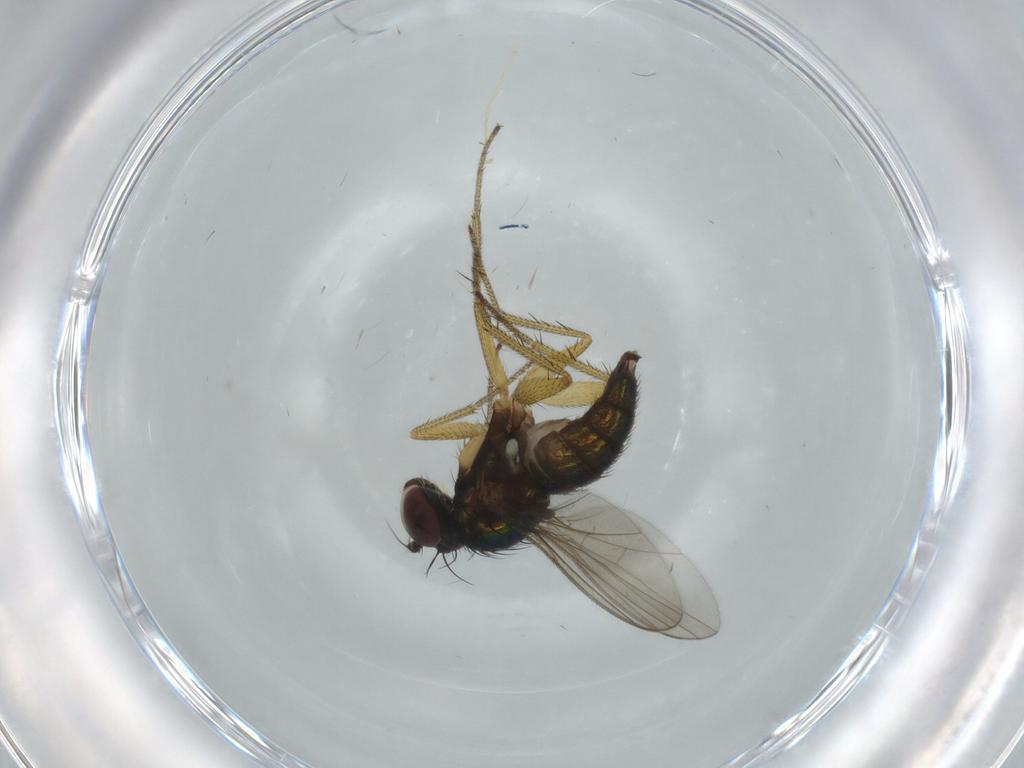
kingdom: Animalia
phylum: Arthropoda
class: Insecta
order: Diptera
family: Dolichopodidae
